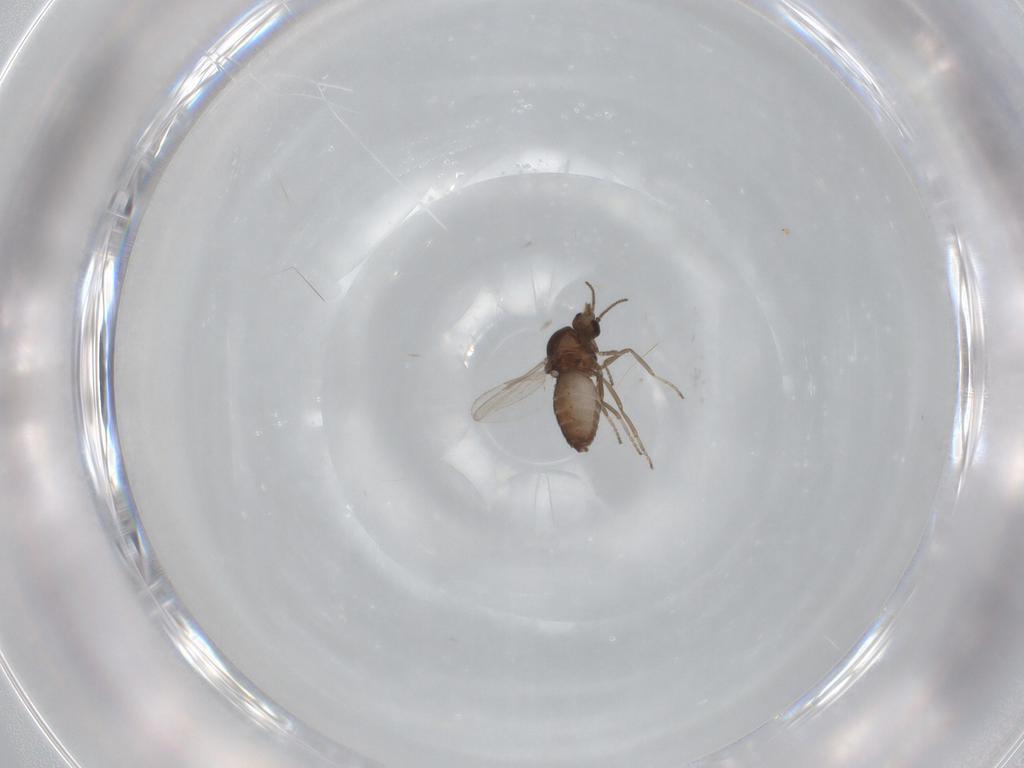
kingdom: Animalia
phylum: Arthropoda
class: Insecta
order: Diptera
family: Ceratopogonidae
